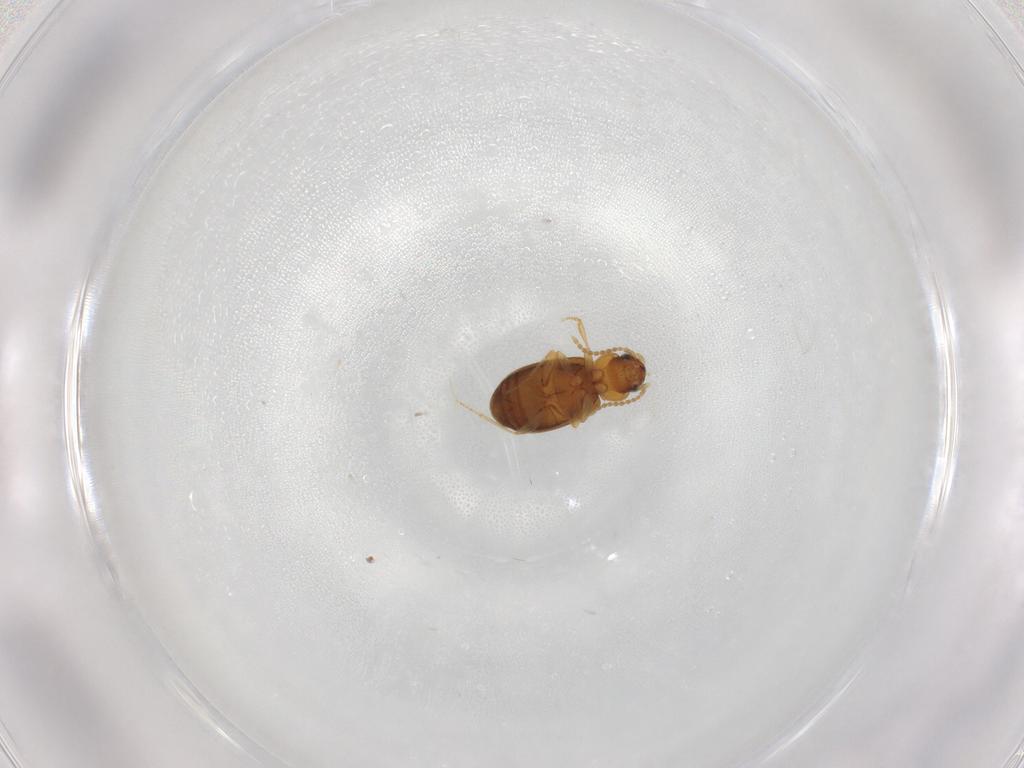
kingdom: Animalia
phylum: Arthropoda
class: Insecta
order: Coleoptera
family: Carabidae
